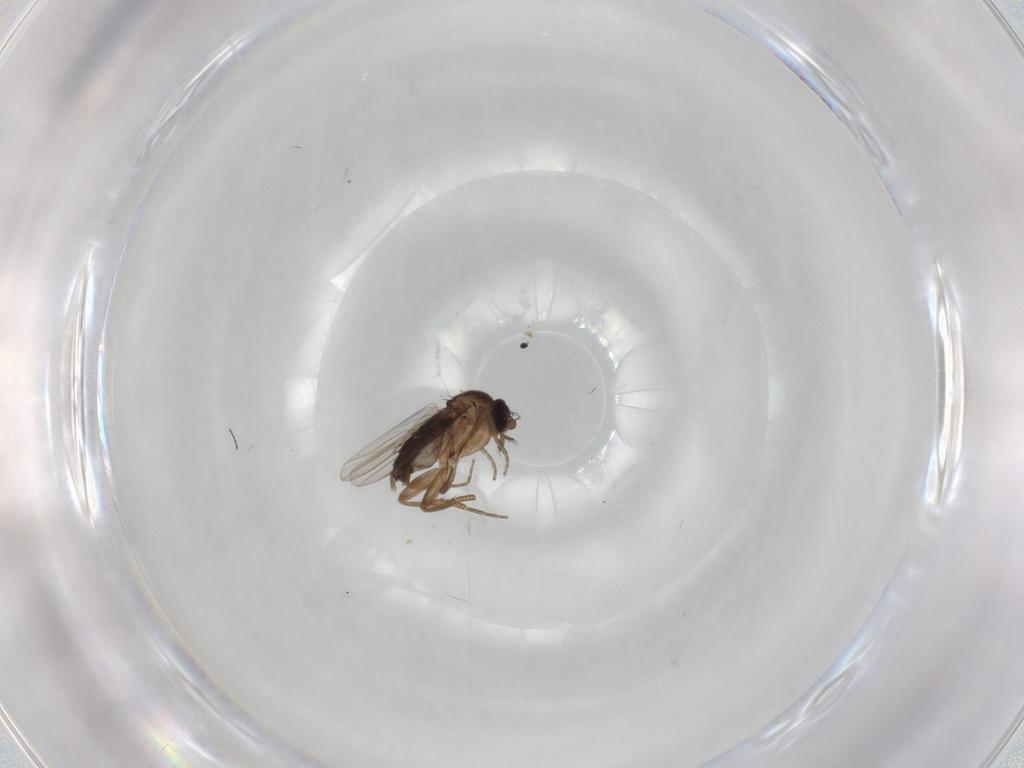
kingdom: Animalia
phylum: Arthropoda
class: Insecta
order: Diptera
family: Phoridae
